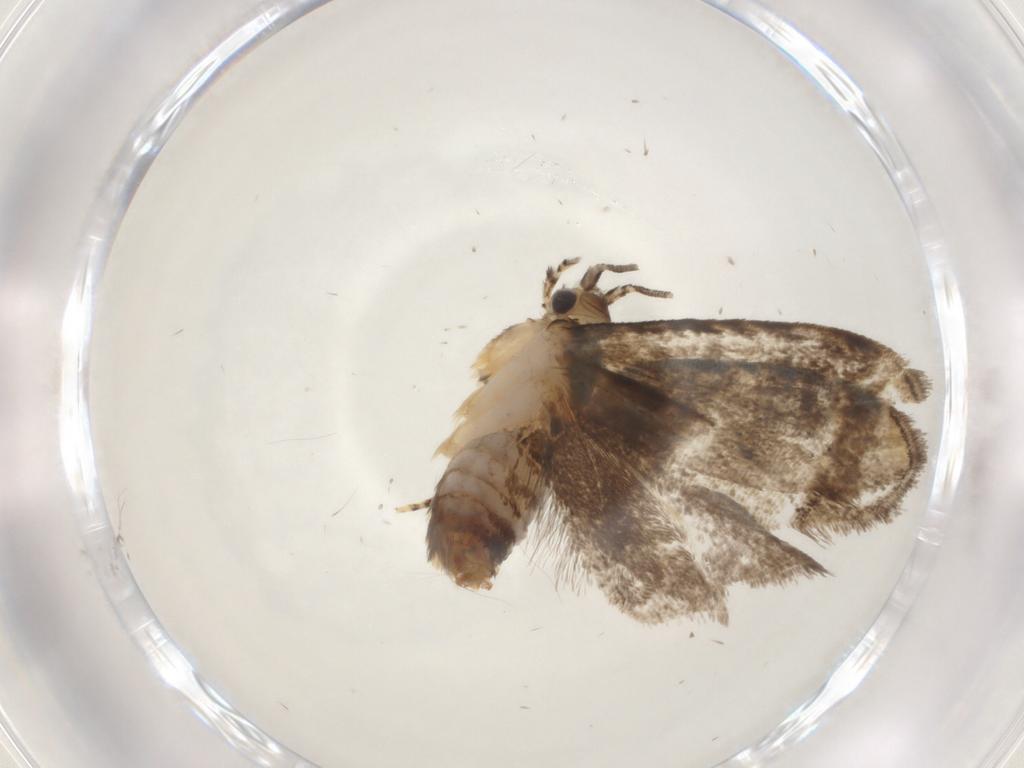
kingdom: Animalia
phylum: Arthropoda
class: Insecta
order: Lepidoptera
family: Tineidae
